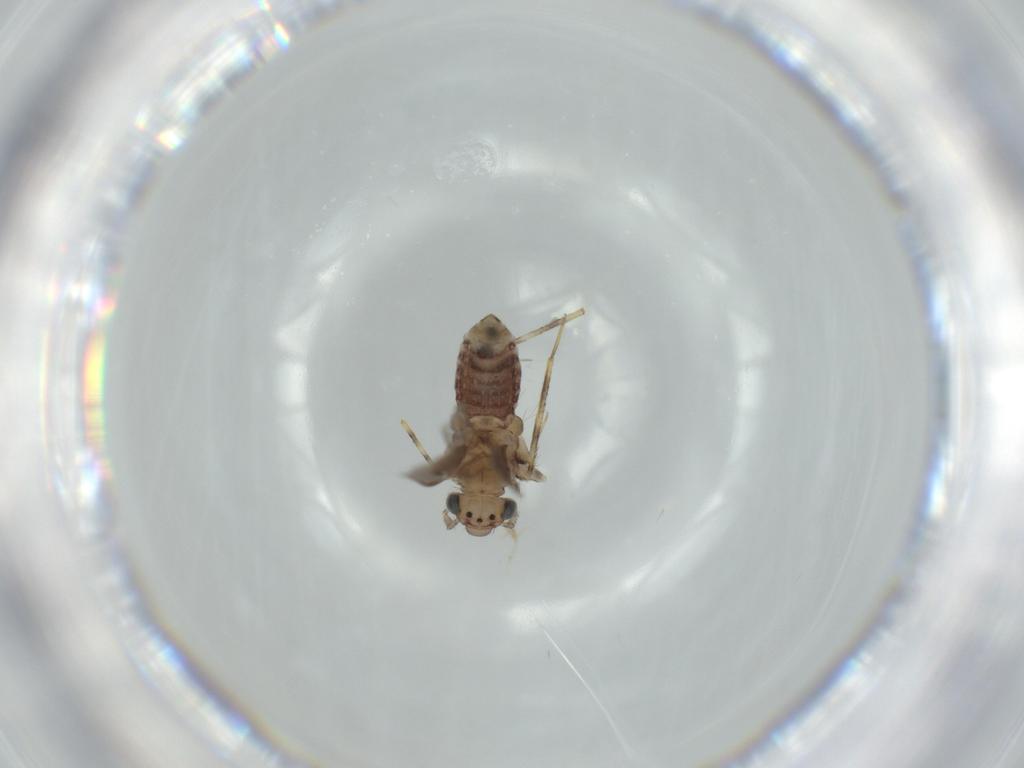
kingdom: Animalia
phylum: Arthropoda
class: Insecta
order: Psocodea
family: Lepidopsocidae
